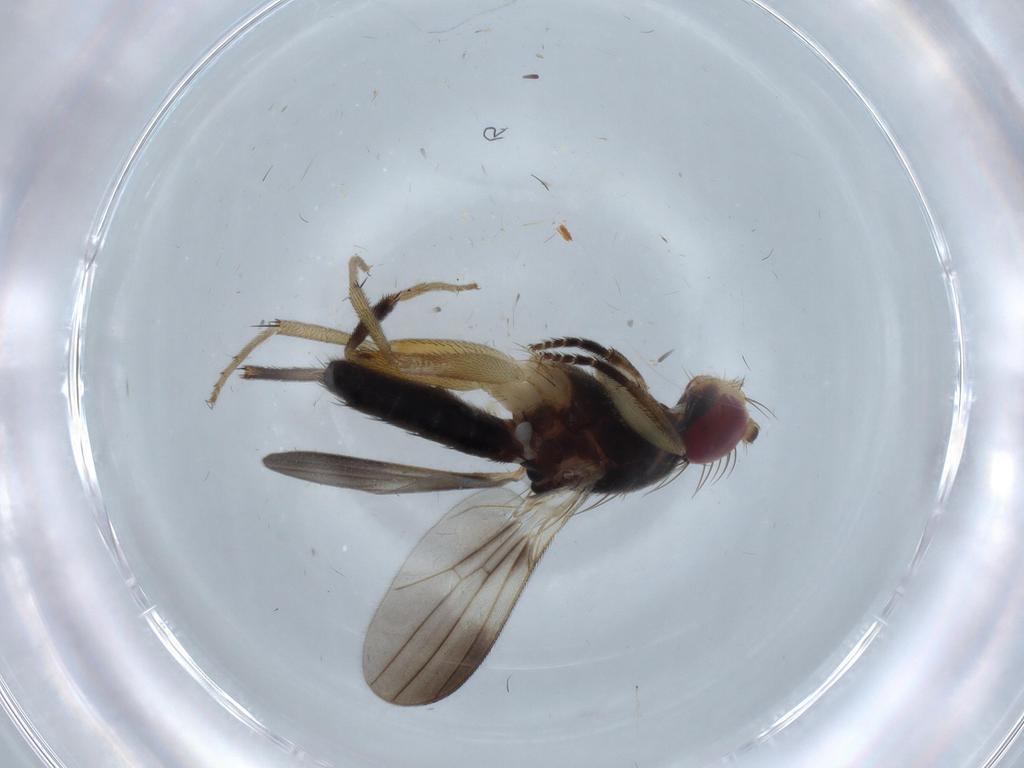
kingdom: Animalia
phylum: Arthropoda
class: Insecta
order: Diptera
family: Clusiidae
